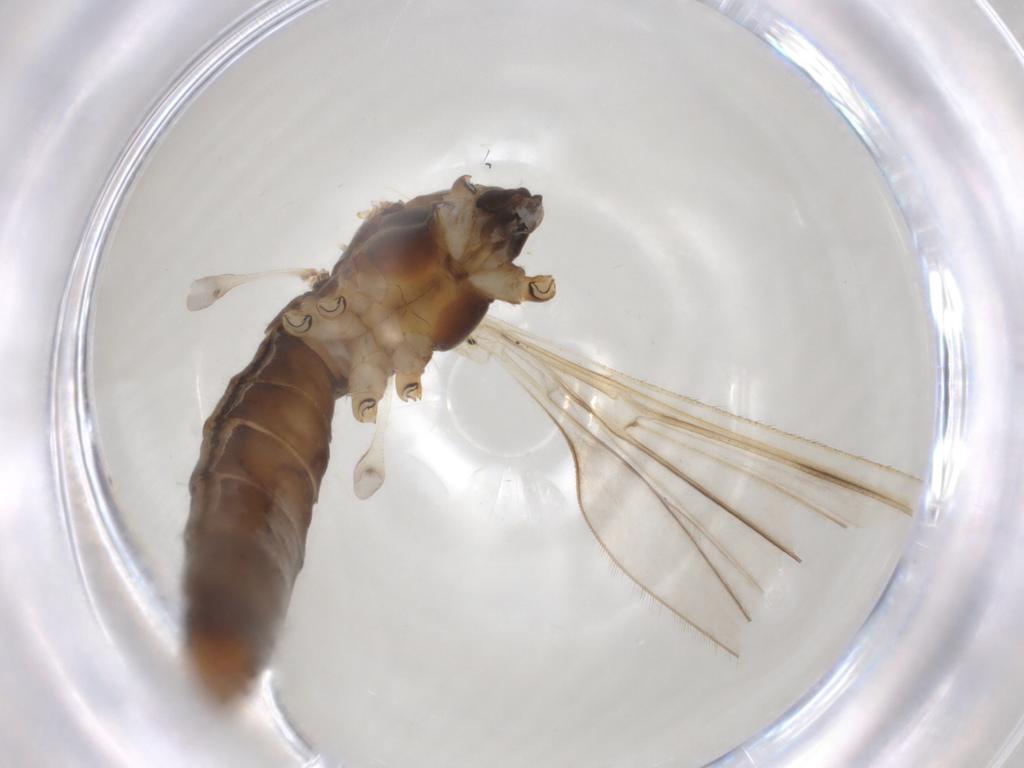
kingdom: Animalia
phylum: Arthropoda
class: Insecta
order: Diptera
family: Limoniidae
